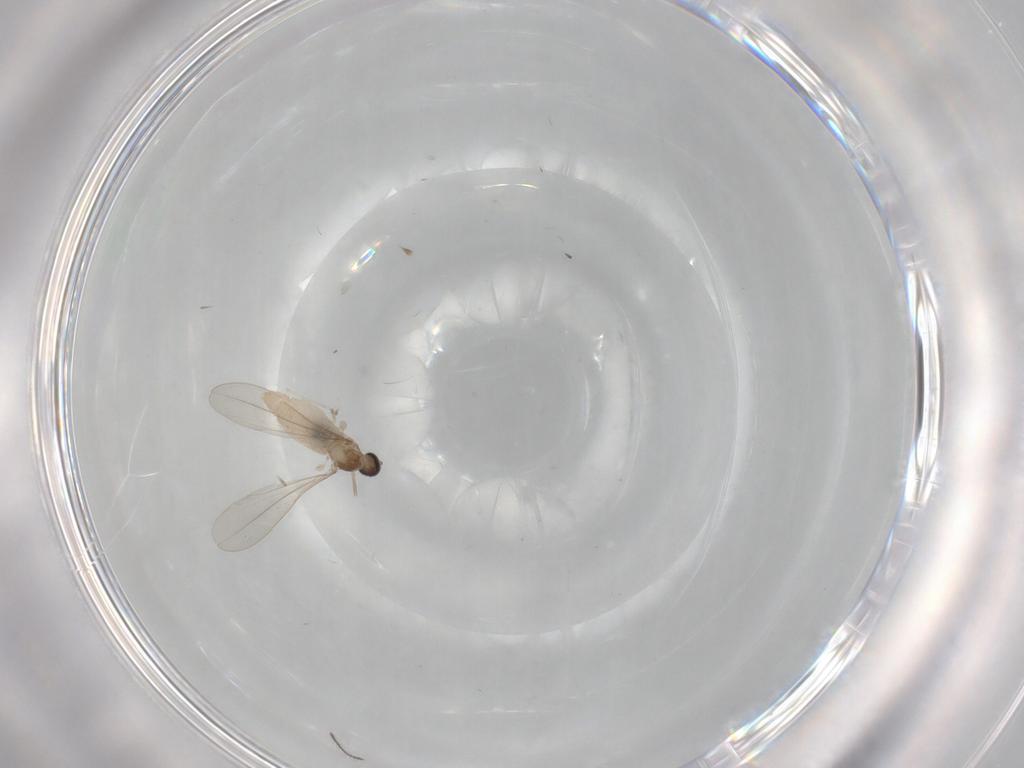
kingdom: Animalia
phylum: Arthropoda
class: Insecta
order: Diptera
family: Cecidomyiidae
